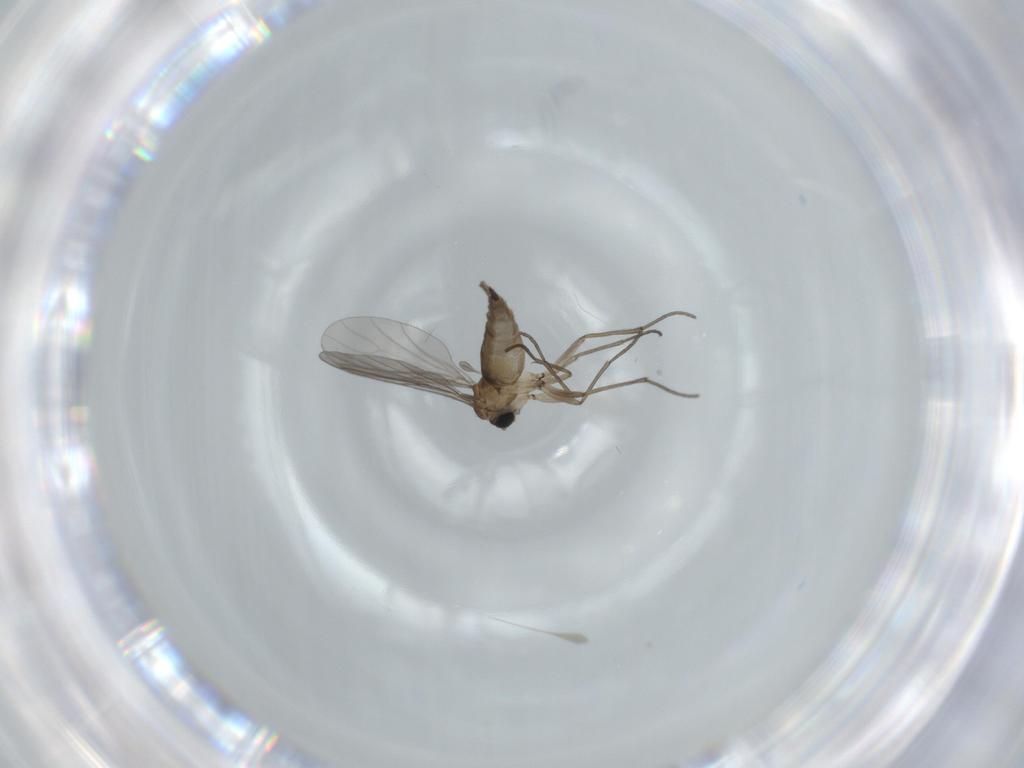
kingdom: Animalia
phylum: Arthropoda
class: Insecta
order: Diptera
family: Sciaridae
